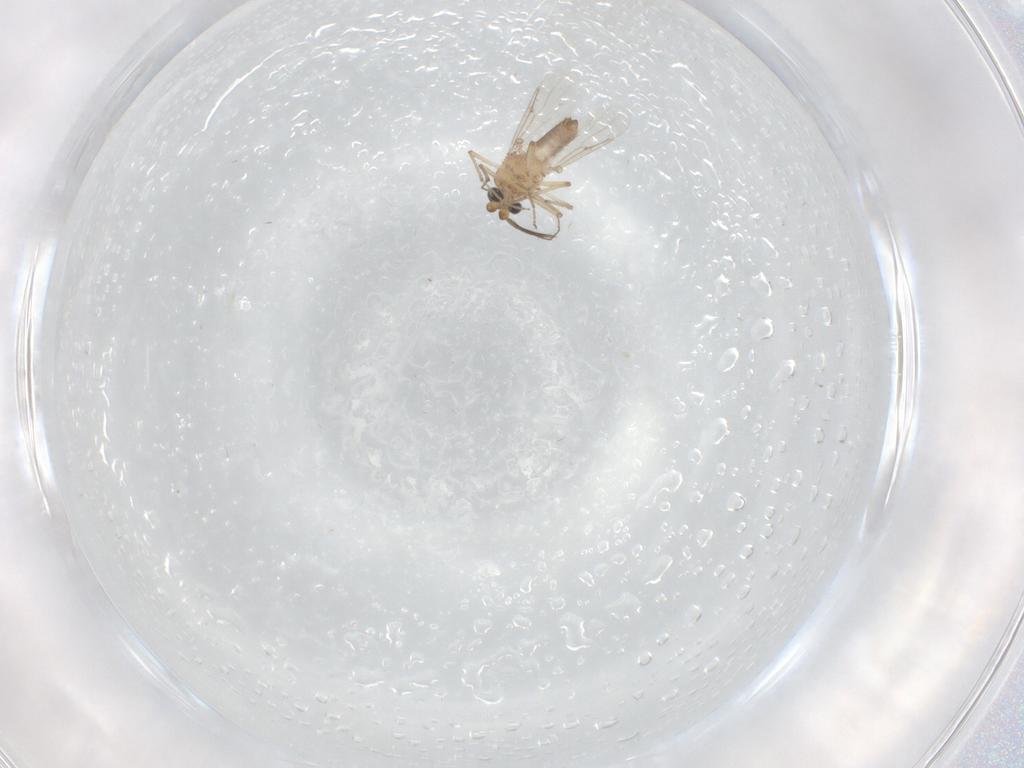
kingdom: Animalia
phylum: Arthropoda
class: Insecta
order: Diptera
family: Ceratopogonidae
